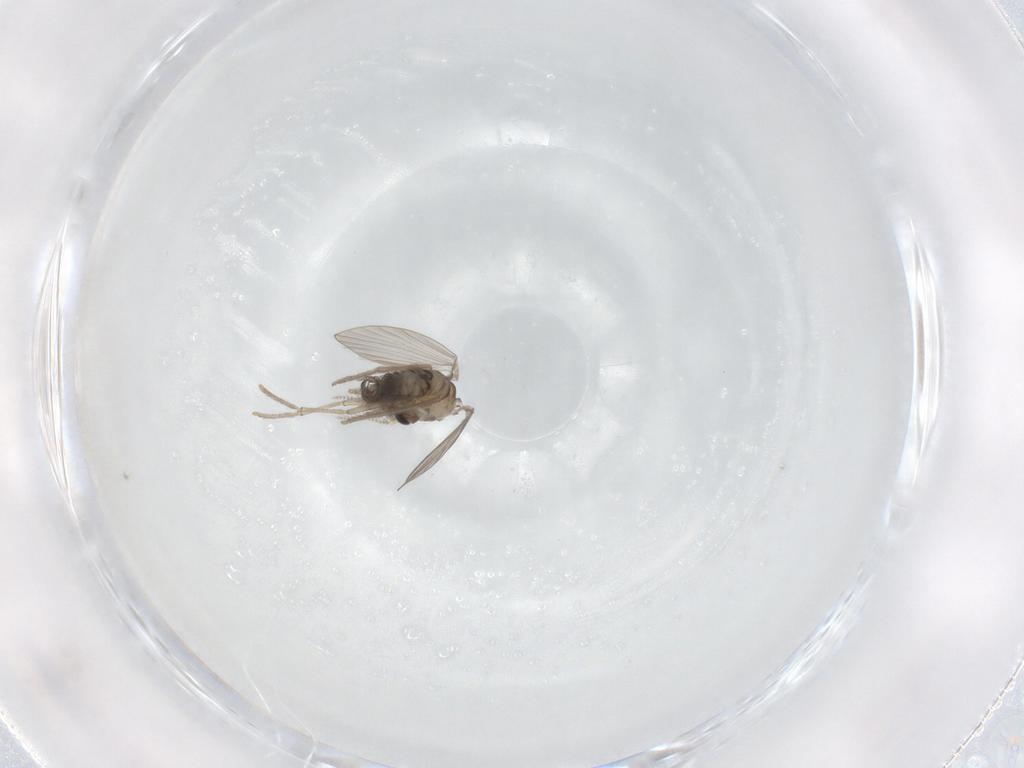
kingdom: Animalia
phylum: Arthropoda
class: Insecta
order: Diptera
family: Psychodidae
